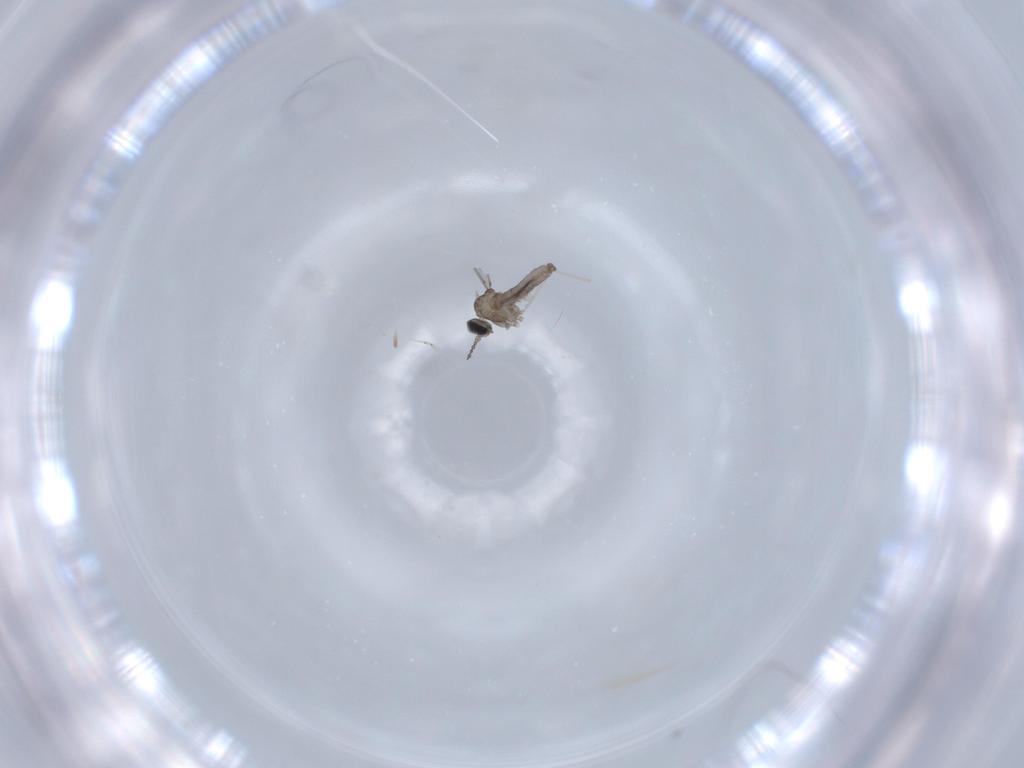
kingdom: Animalia
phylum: Arthropoda
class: Insecta
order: Diptera
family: Cecidomyiidae
